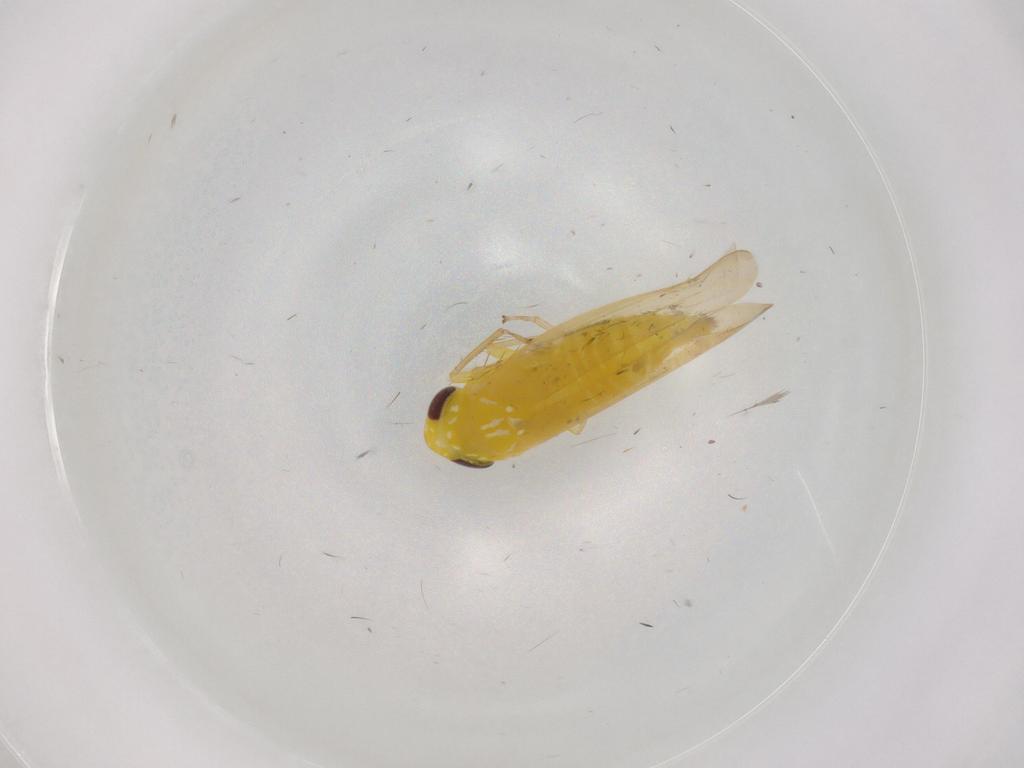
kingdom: Animalia
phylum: Arthropoda
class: Insecta
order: Hemiptera
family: Cicadellidae
